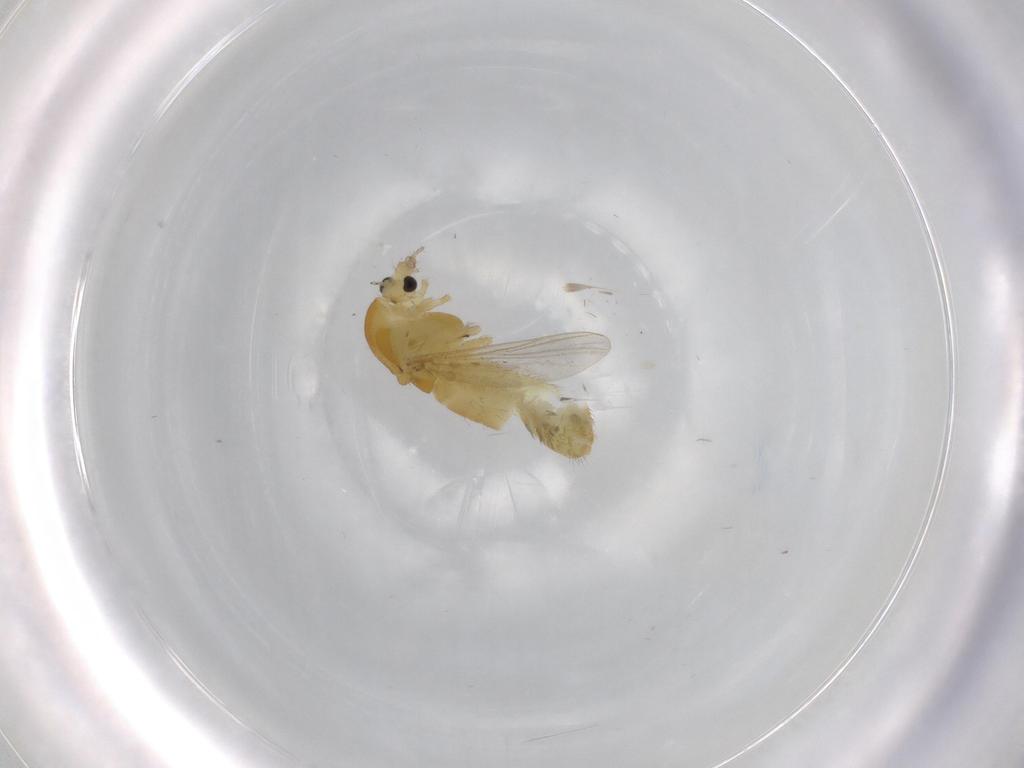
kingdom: Animalia
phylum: Arthropoda
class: Insecta
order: Diptera
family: Chironomidae
